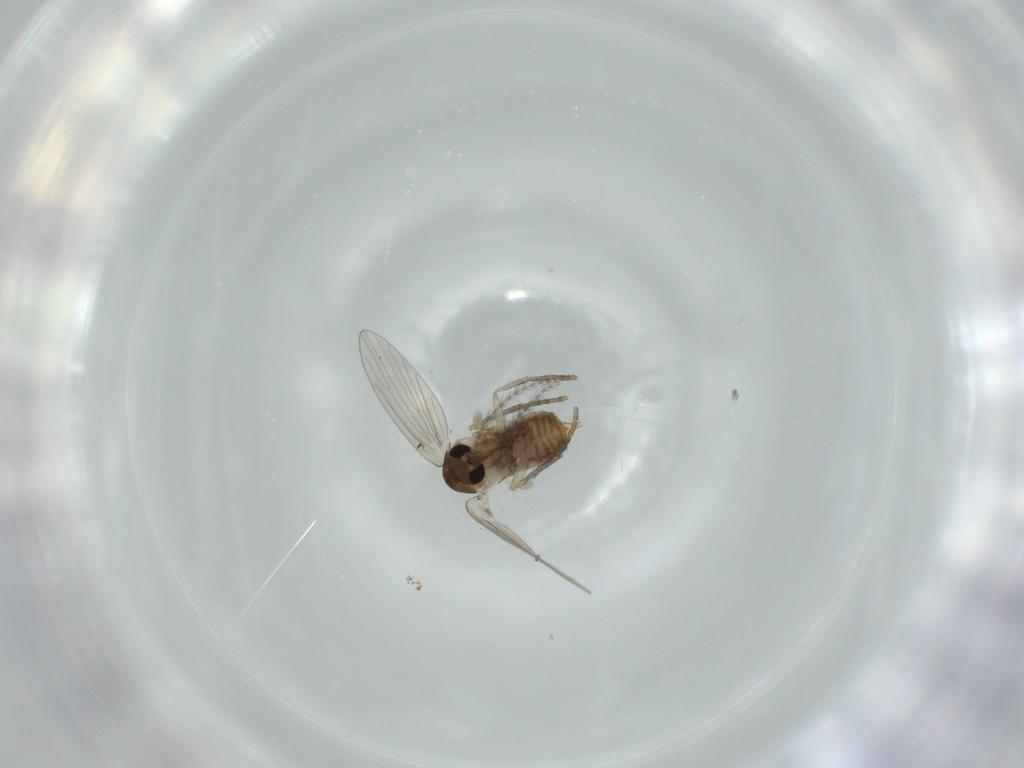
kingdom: Animalia
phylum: Arthropoda
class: Insecta
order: Diptera
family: Psychodidae
